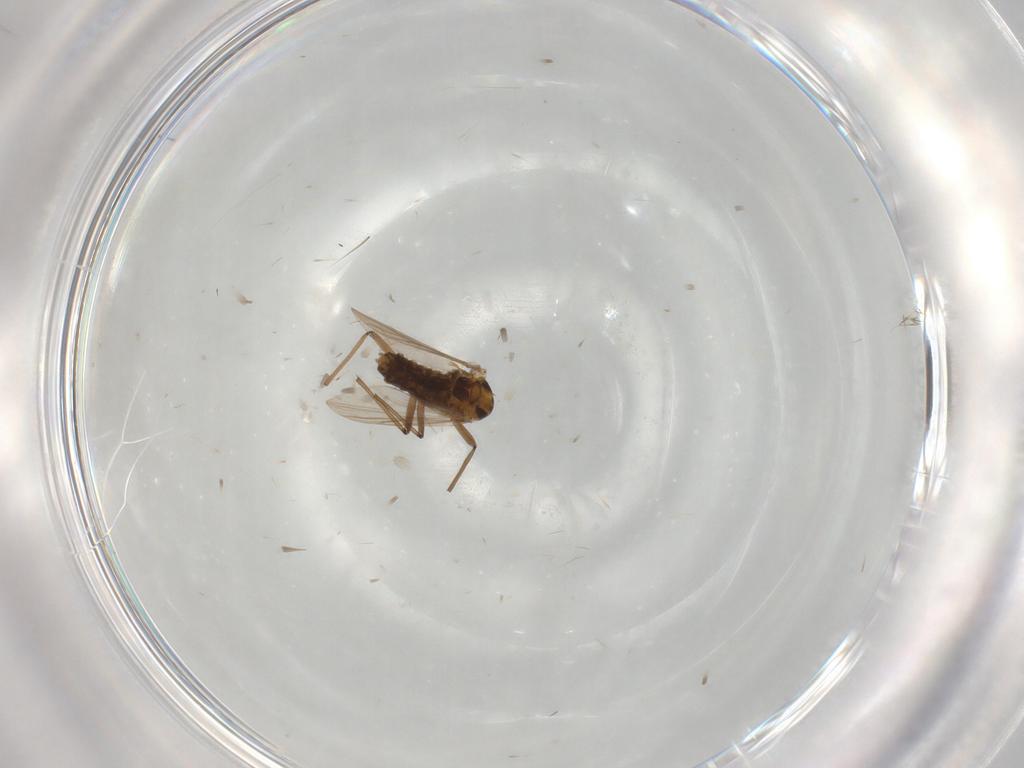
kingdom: Animalia
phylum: Arthropoda
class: Insecta
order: Diptera
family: Chironomidae
